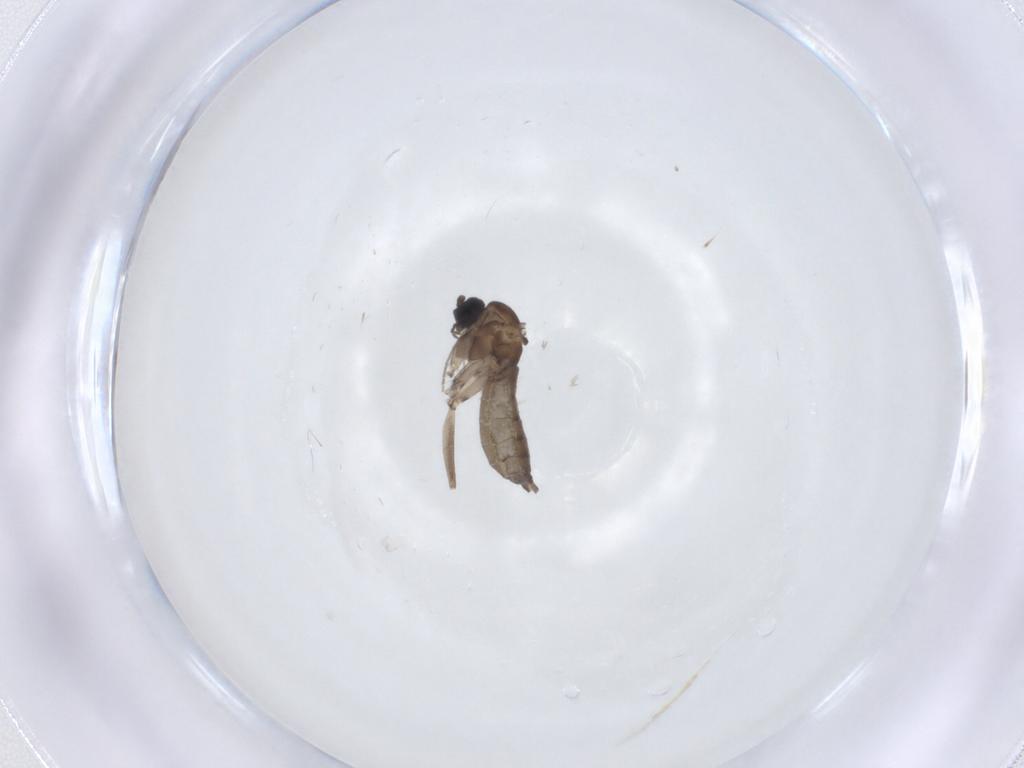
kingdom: Animalia
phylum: Arthropoda
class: Insecta
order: Diptera
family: Sciaridae
